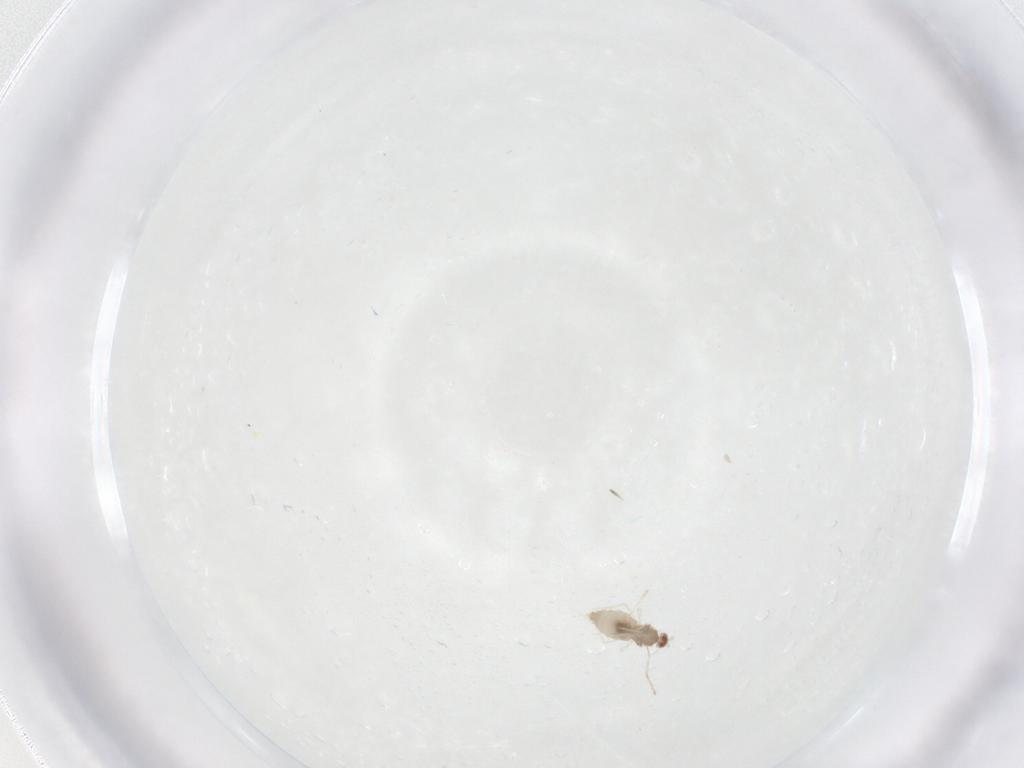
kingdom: Animalia
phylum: Arthropoda
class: Insecta
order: Diptera
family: Cecidomyiidae
